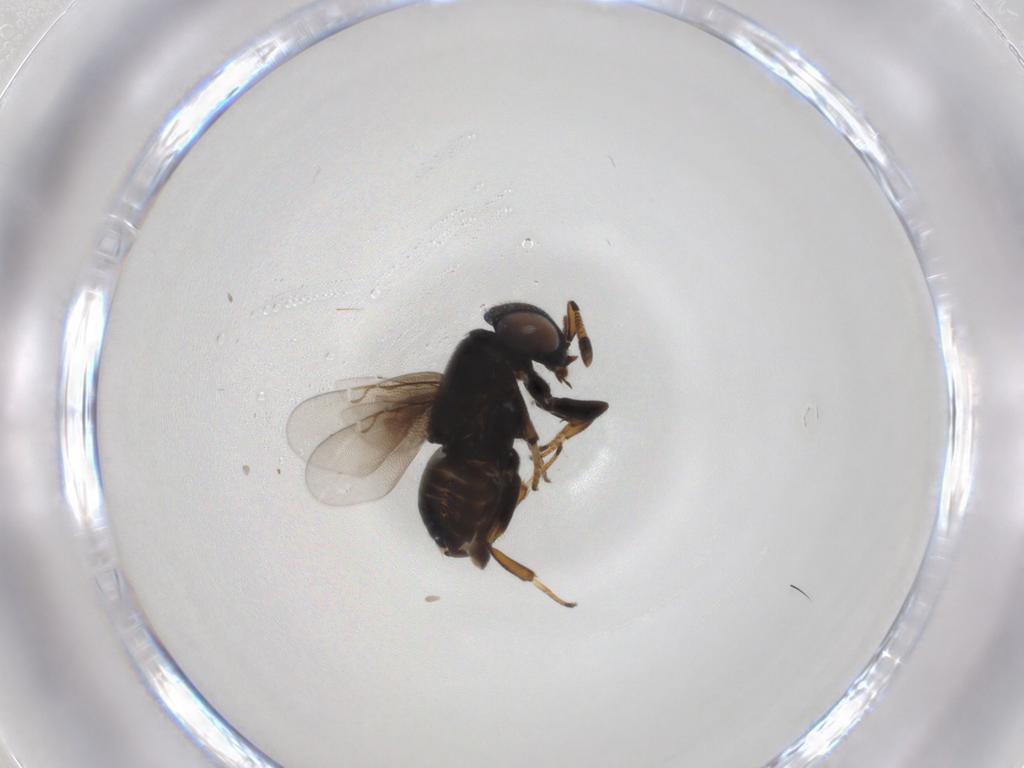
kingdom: Animalia
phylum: Arthropoda
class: Insecta
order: Hymenoptera
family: Encyrtidae
